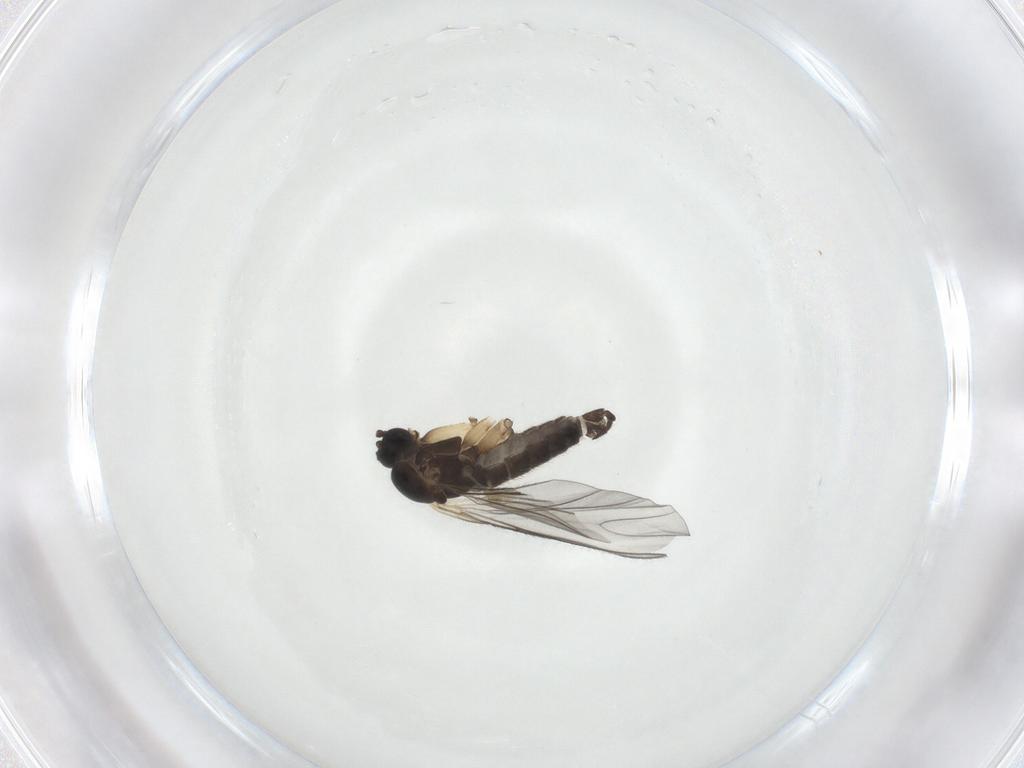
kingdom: Animalia
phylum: Arthropoda
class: Insecta
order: Diptera
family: Sciaridae
